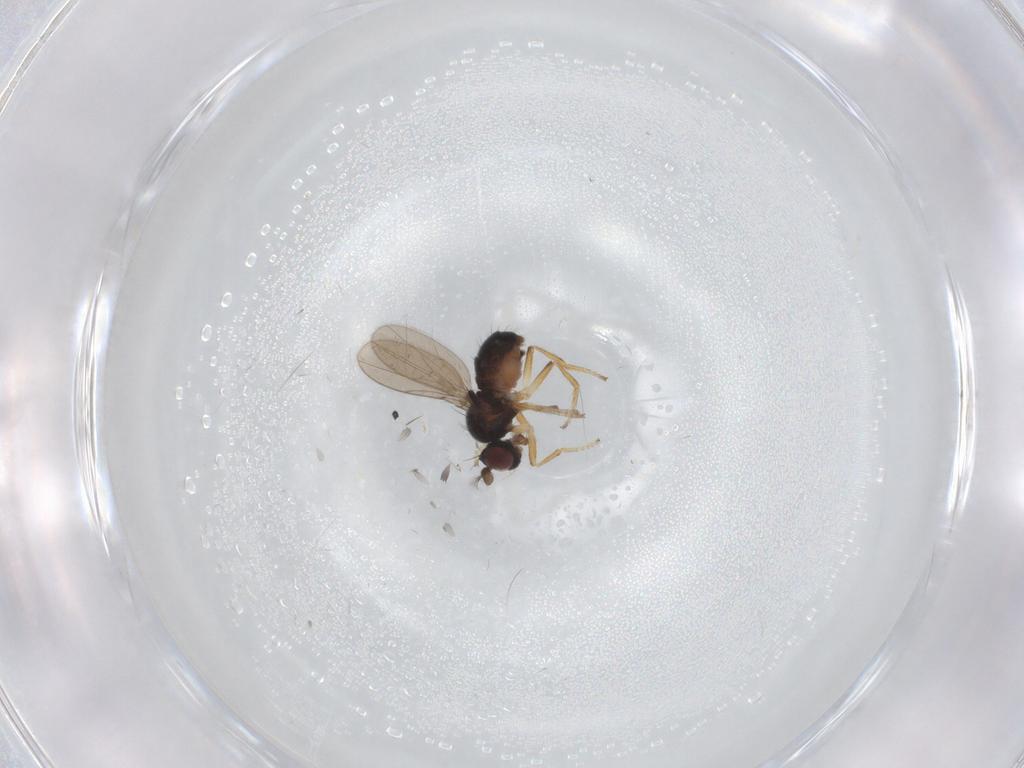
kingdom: Animalia
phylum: Arthropoda
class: Insecta
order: Diptera
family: Ephydridae
